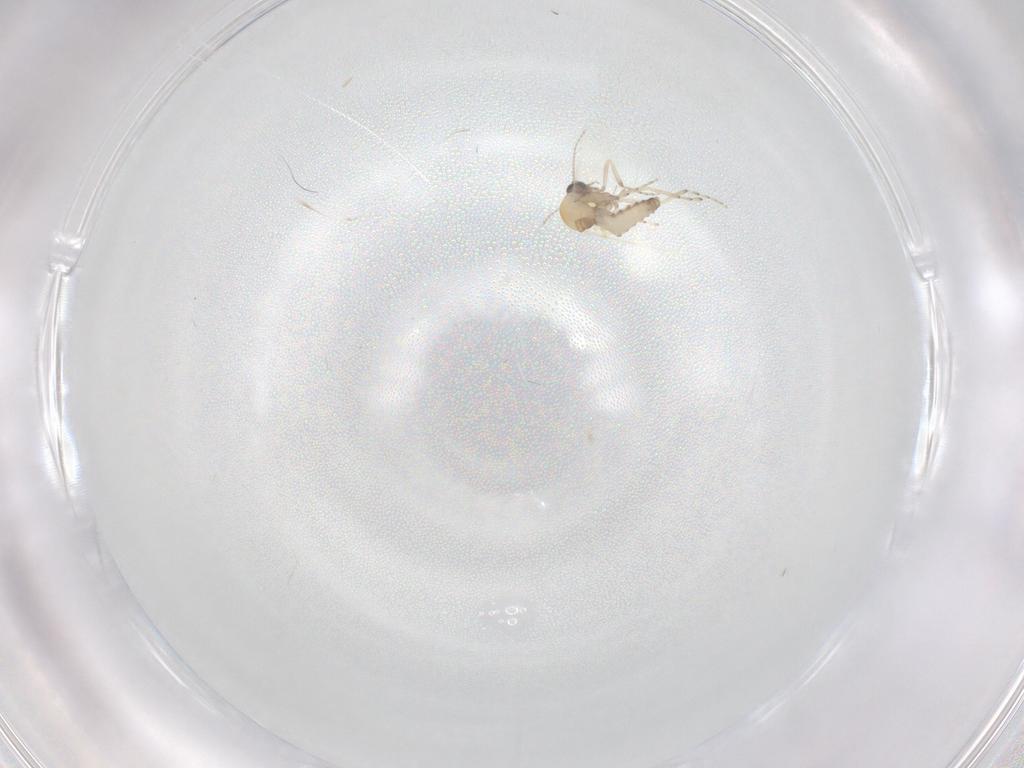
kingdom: Animalia
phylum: Arthropoda
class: Insecta
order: Diptera
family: Ceratopogonidae
